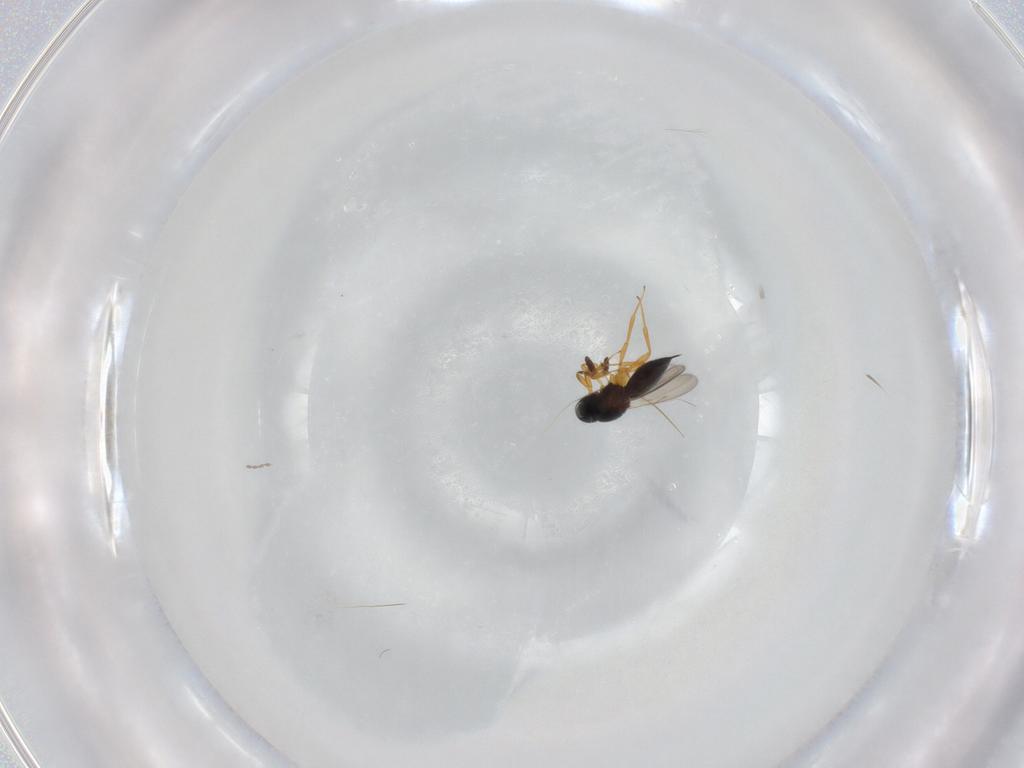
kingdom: Animalia
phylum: Arthropoda
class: Insecta
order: Hymenoptera
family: Scelionidae
